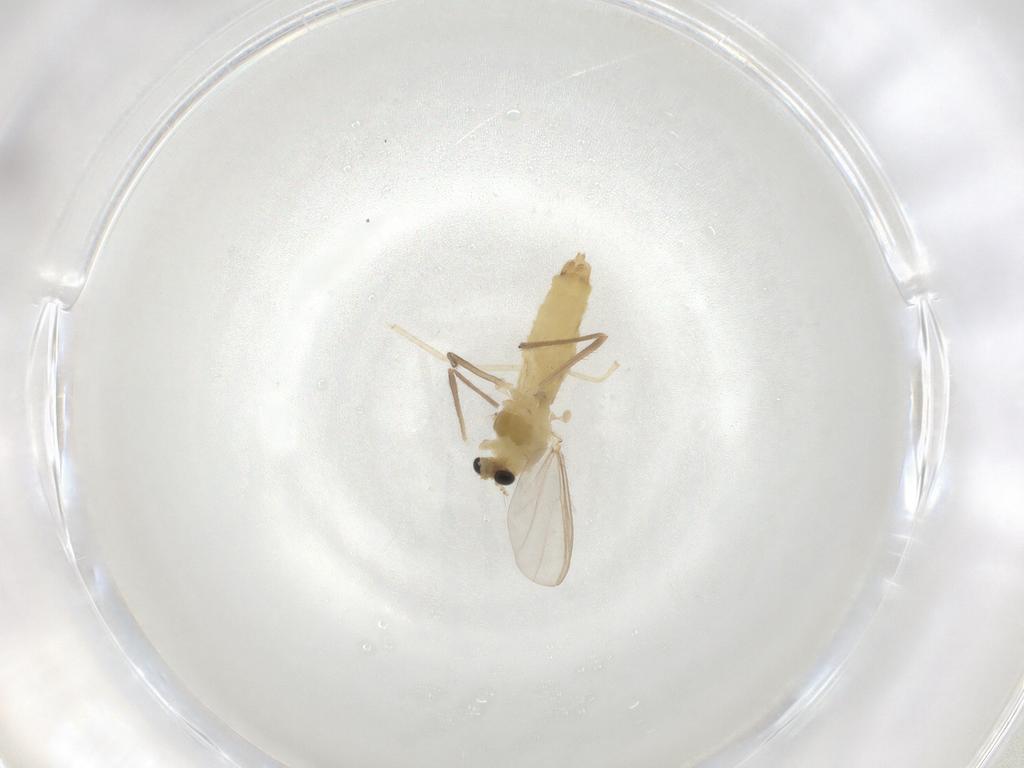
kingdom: Animalia
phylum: Arthropoda
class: Insecta
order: Diptera
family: Chironomidae
